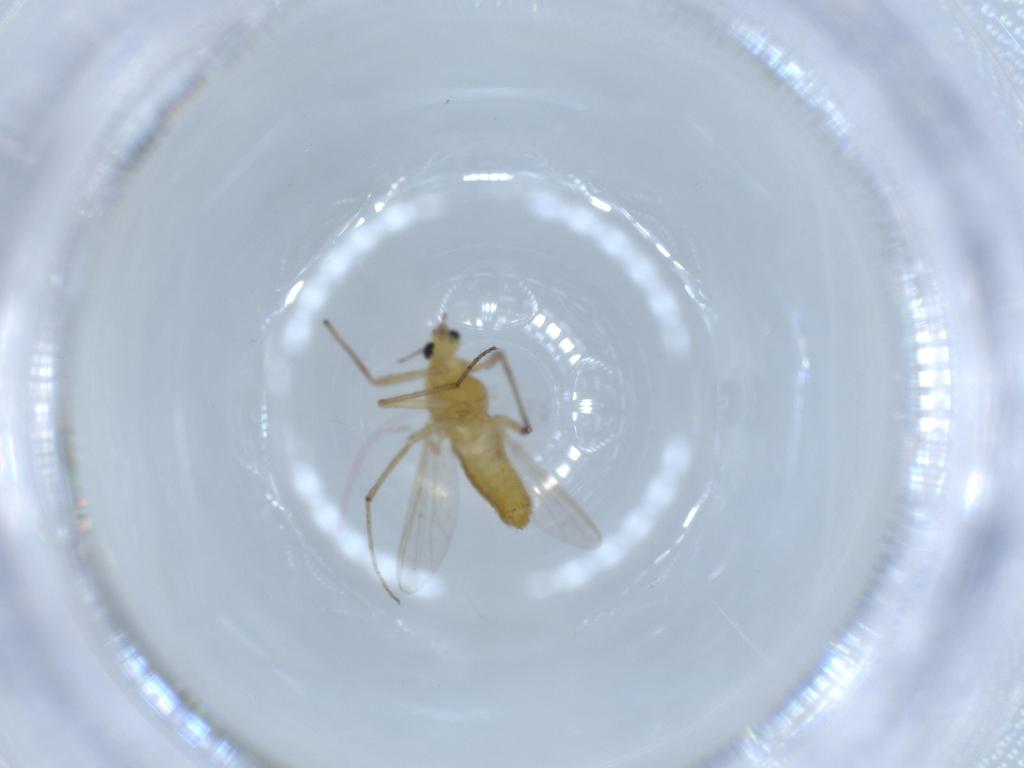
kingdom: Animalia
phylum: Arthropoda
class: Insecta
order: Diptera
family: Chironomidae
